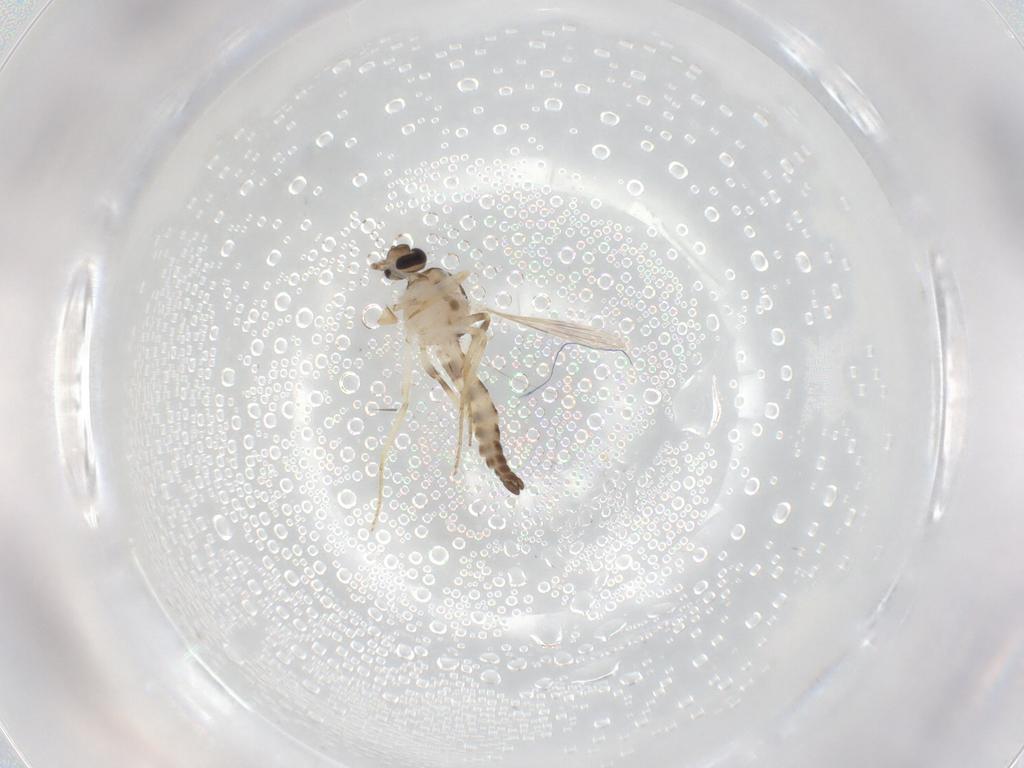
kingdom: Animalia
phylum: Arthropoda
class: Insecta
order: Diptera
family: Ceratopogonidae
